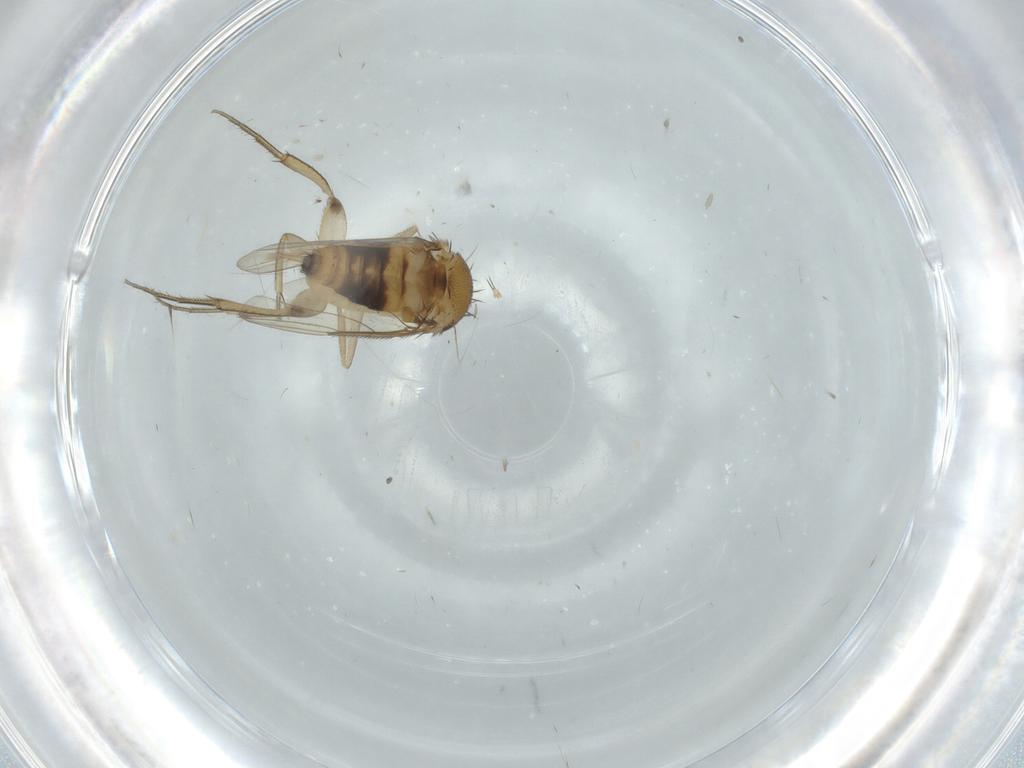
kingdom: Animalia
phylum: Arthropoda
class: Insecta
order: Diptera
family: Phoridae
